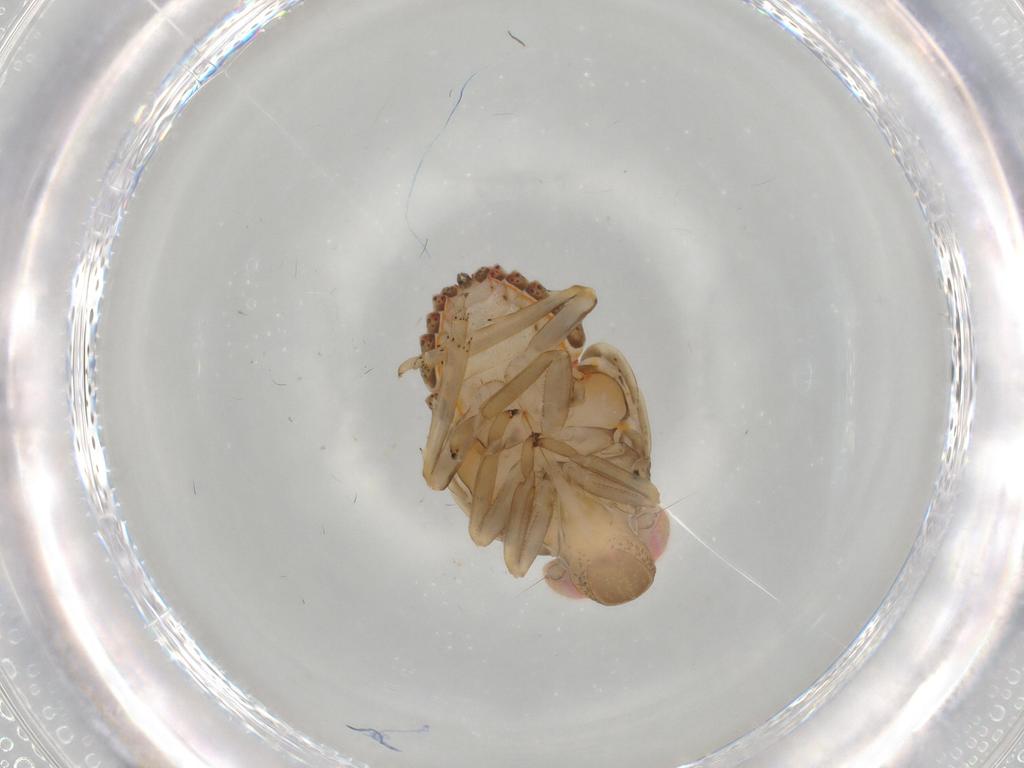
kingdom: Animalia
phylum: Arthropoda
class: Insecta
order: Hemiptera
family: Issidae
